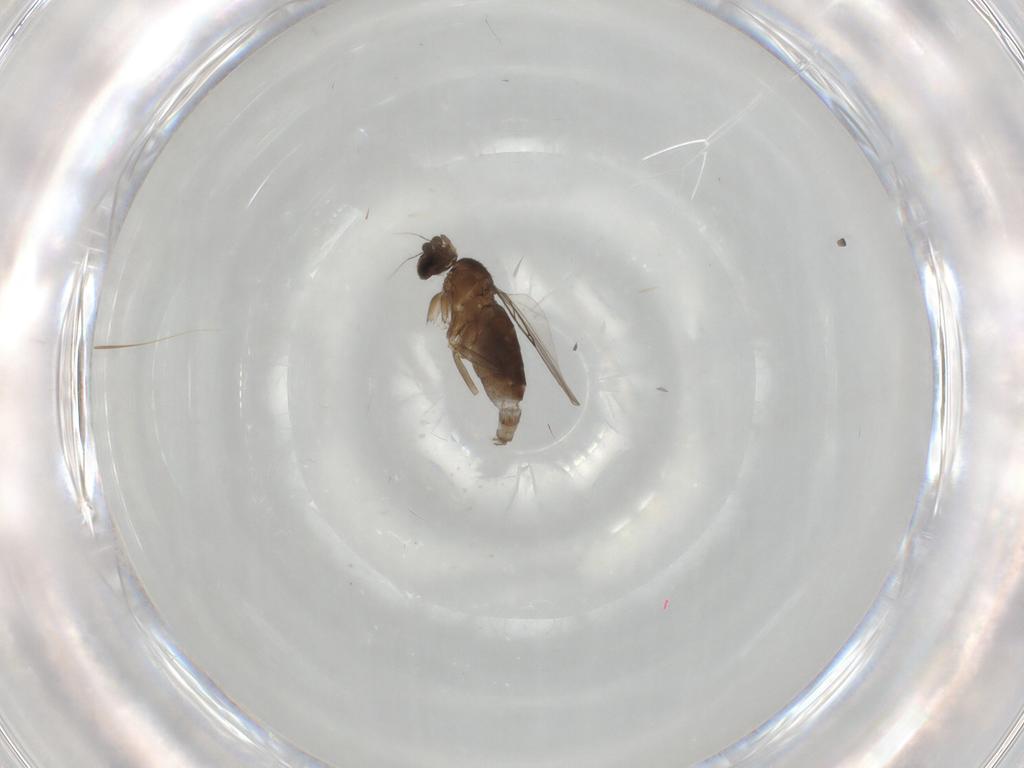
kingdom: Animalia
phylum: Arthropoda
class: Insecta
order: Diptera
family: Phoridae
